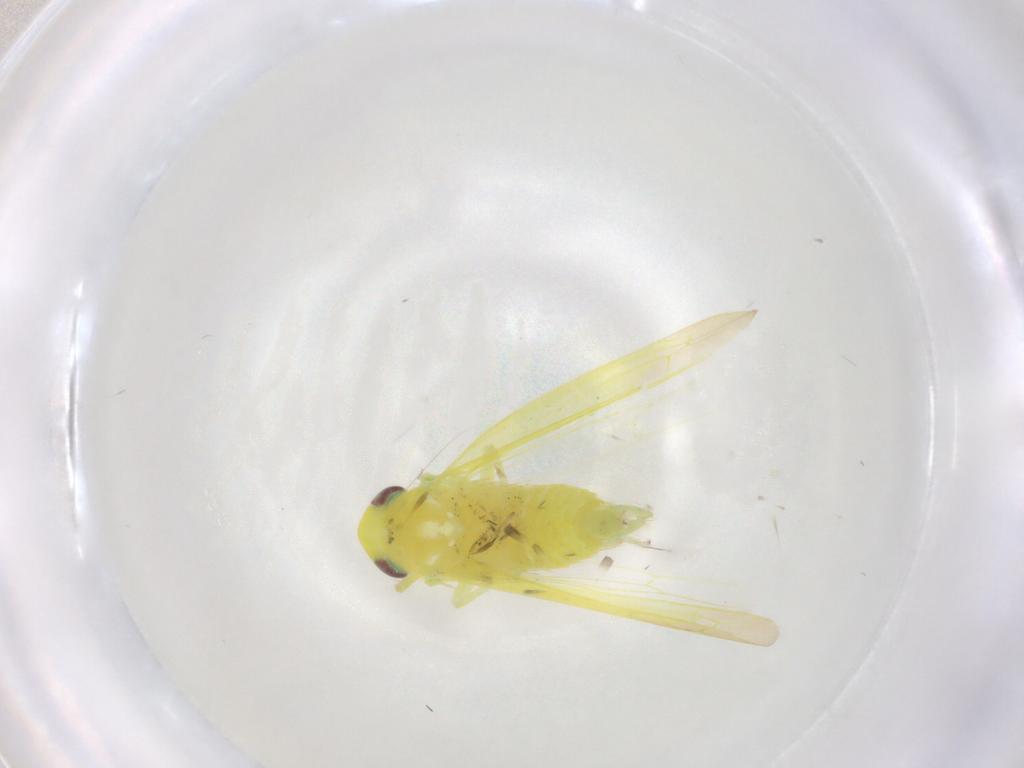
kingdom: Animalia
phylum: Arthropoda
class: Insecta
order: Hemiptera
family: Cicadellidae
